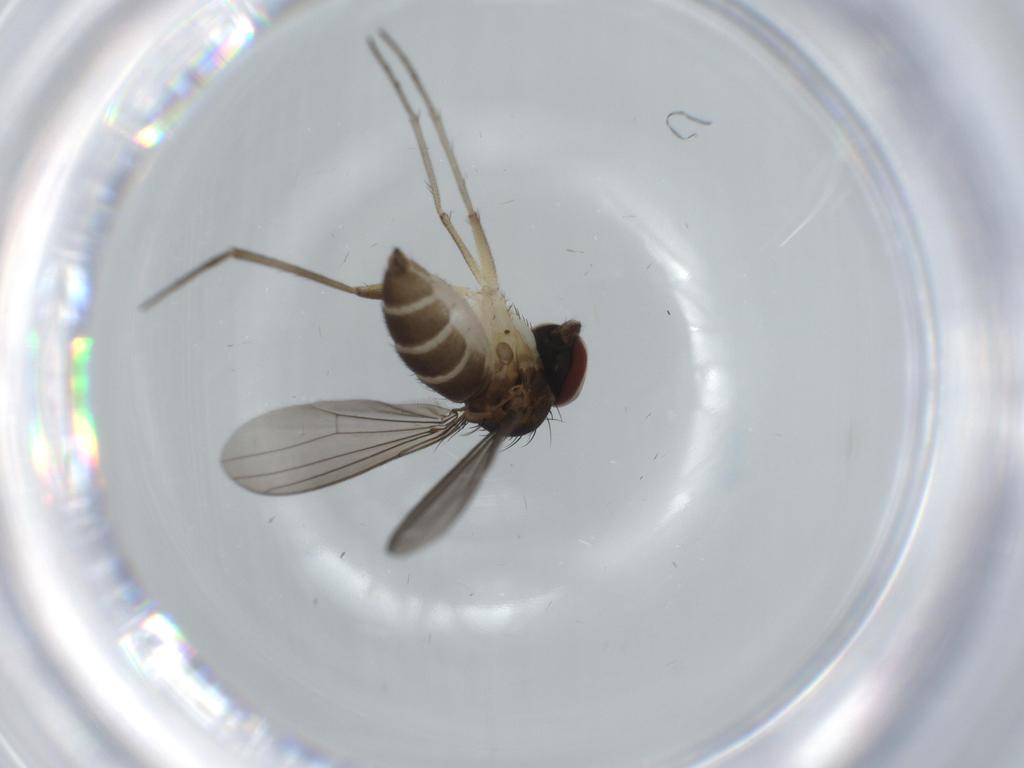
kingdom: Animalia
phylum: Arthropoda
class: Insecta
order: Diptera
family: Dolichopodidae
